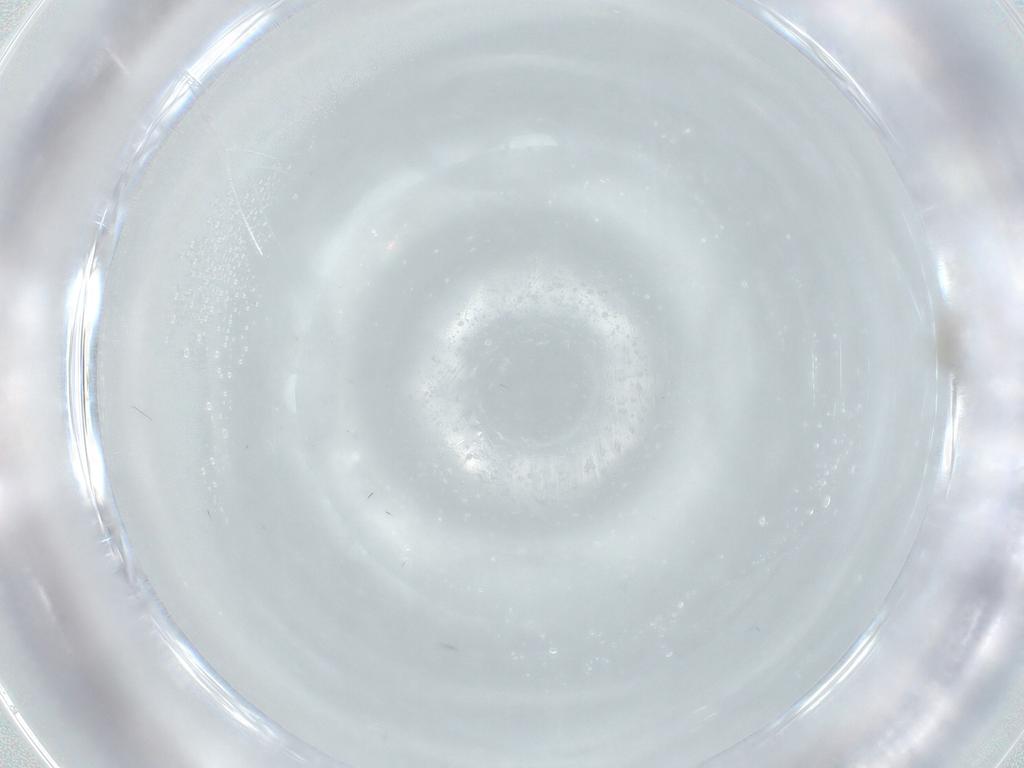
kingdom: Animalia
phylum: Arthropoda
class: Insecta
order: Diptera
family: Cecidomyiidae
